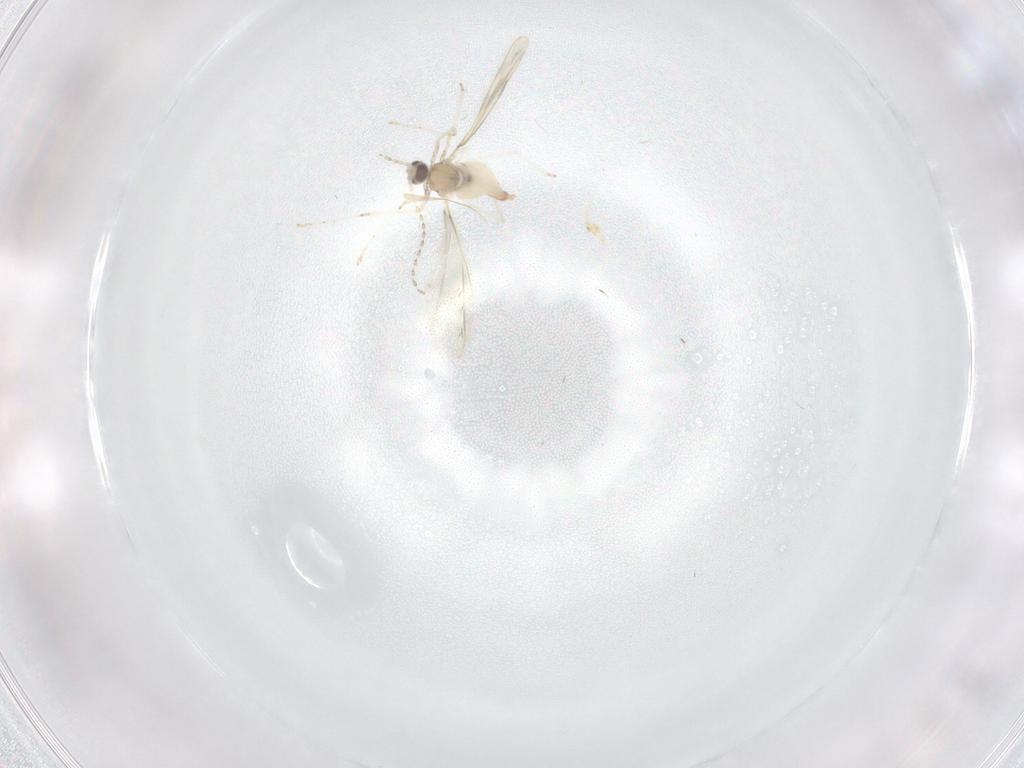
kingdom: Animalia
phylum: Arthropoda
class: Insecta
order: Diptera
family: Cecidomyiidae
